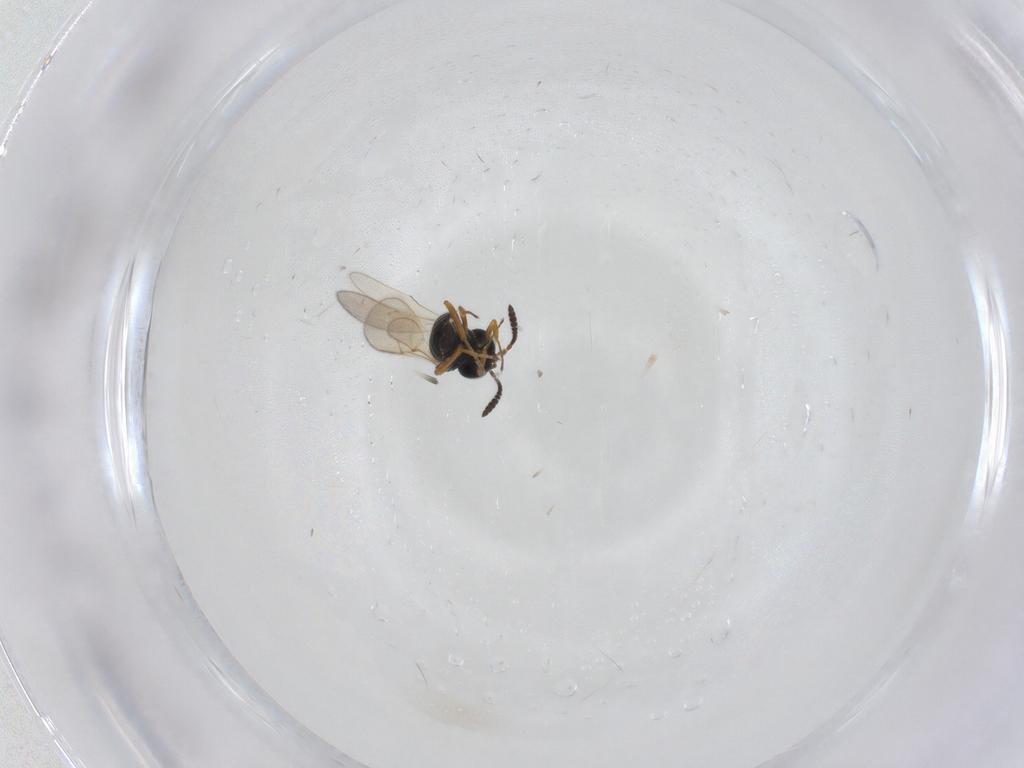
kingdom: Animalia
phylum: Arthropoda
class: Insecta
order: Hymenoptera
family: Scelionidae
